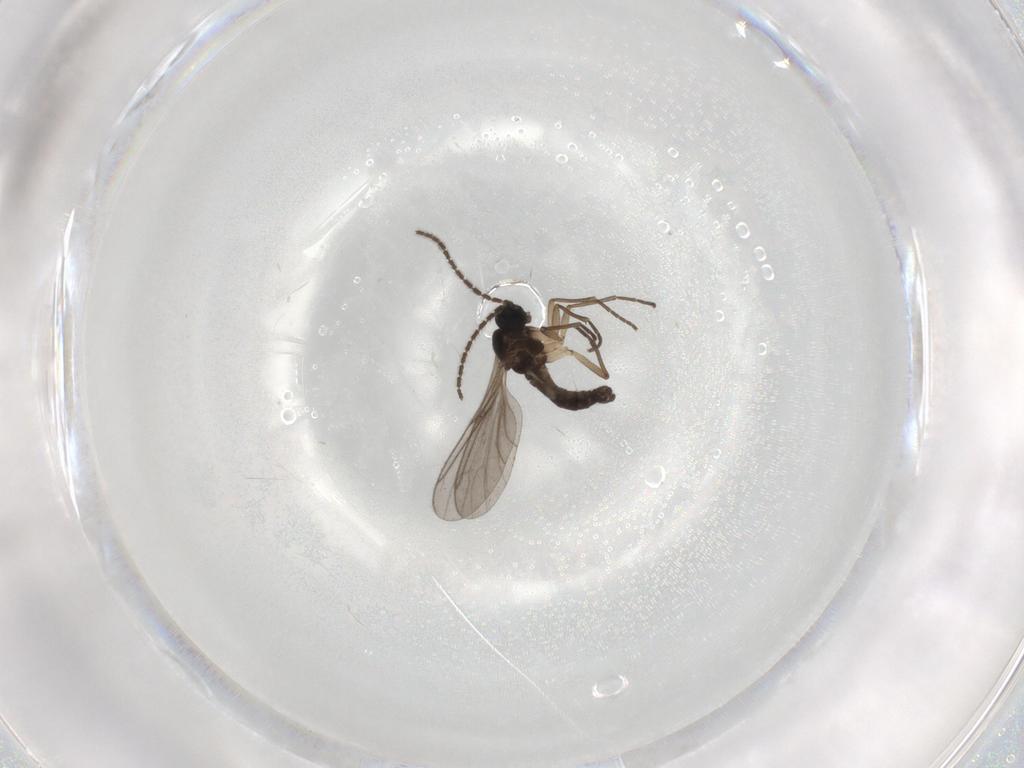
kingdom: Animalia
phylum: Arthropoda
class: Insecta
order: Diptera
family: Sciaridae
